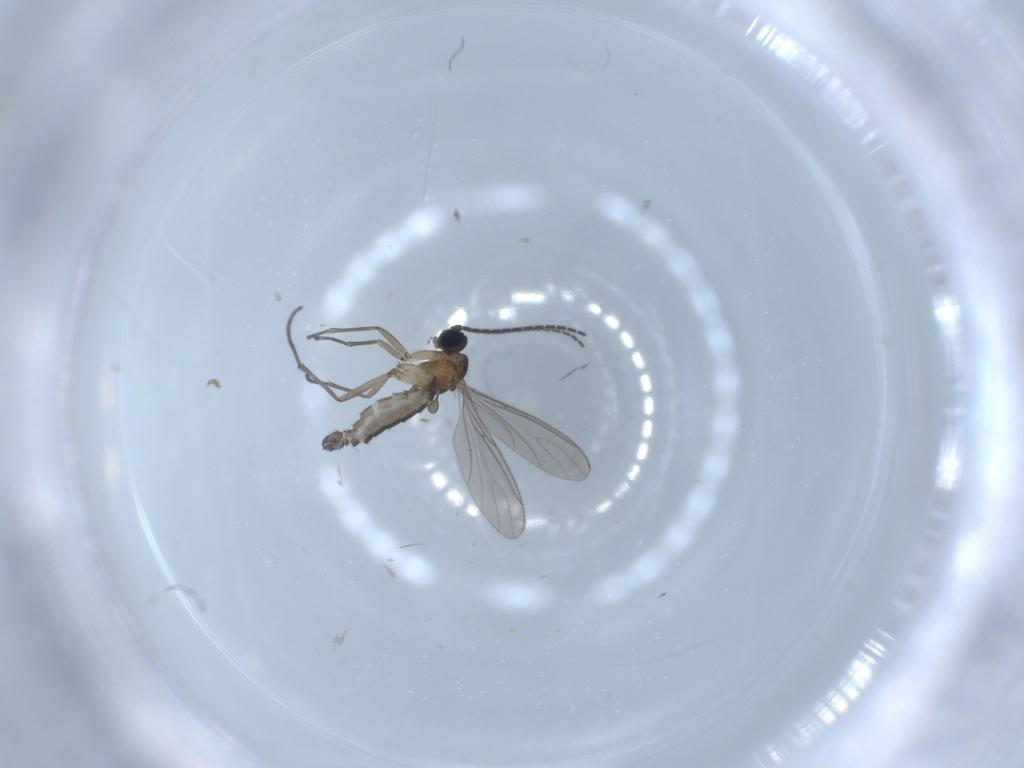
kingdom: Animalia
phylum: Arthropoda
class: Insecta
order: Diptera
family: Sciaridae
